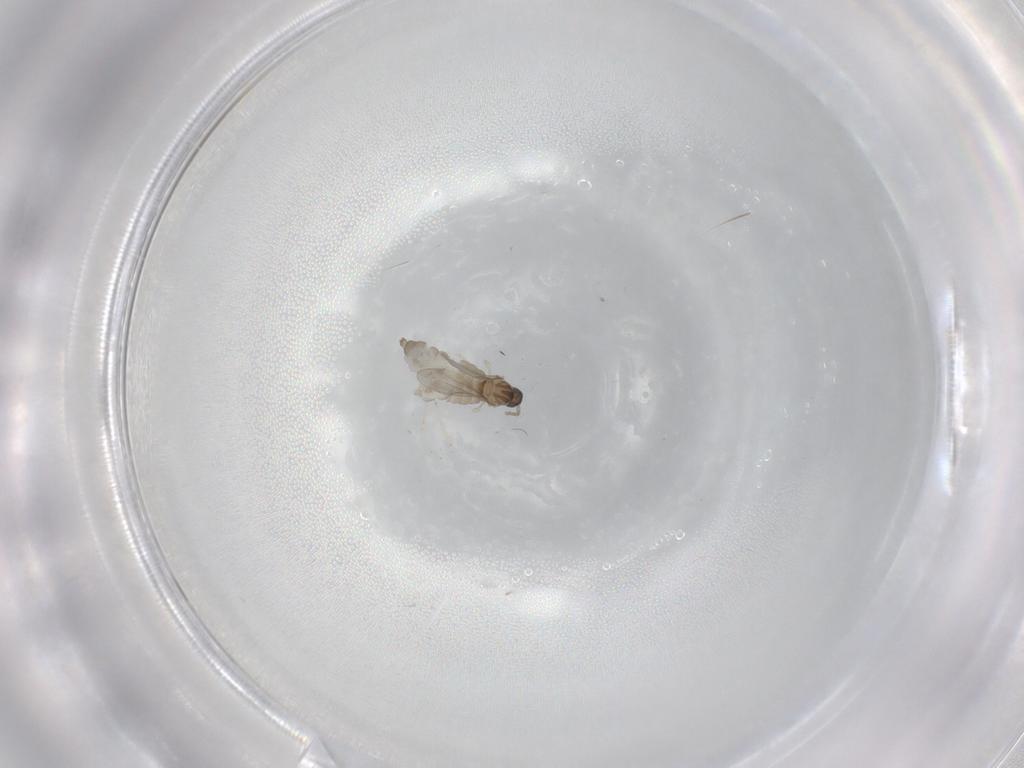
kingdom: Animalia
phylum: Arthropoda
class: Insecta
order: Diptera
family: Cecidomyiidae
